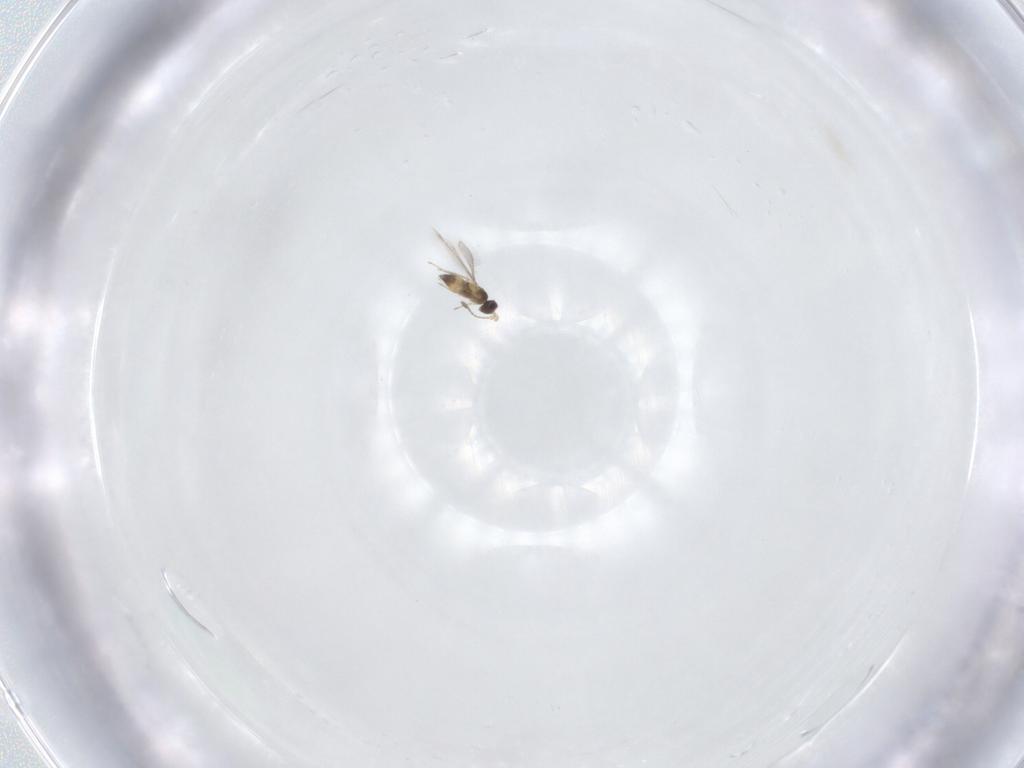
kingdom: Animalia
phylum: Arthropoda
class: Insecta
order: Hymenoptera
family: Mymaridae
